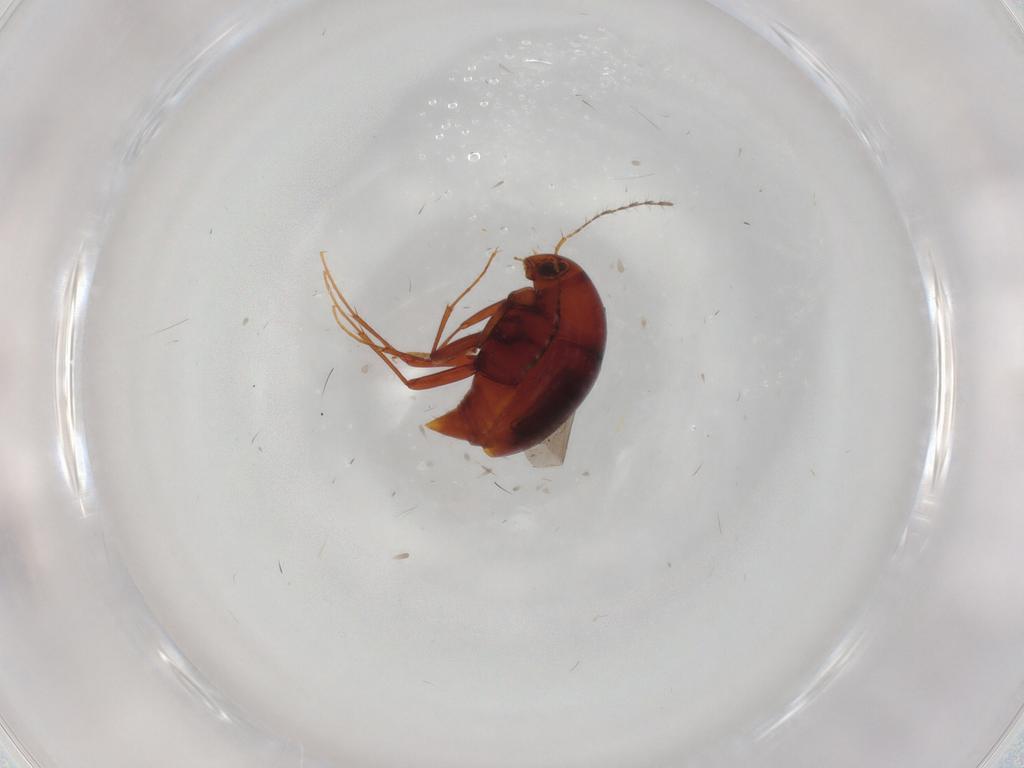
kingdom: Animalia
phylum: Arthropoda
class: Insecta
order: Coleoptera
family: Staphylinidae
